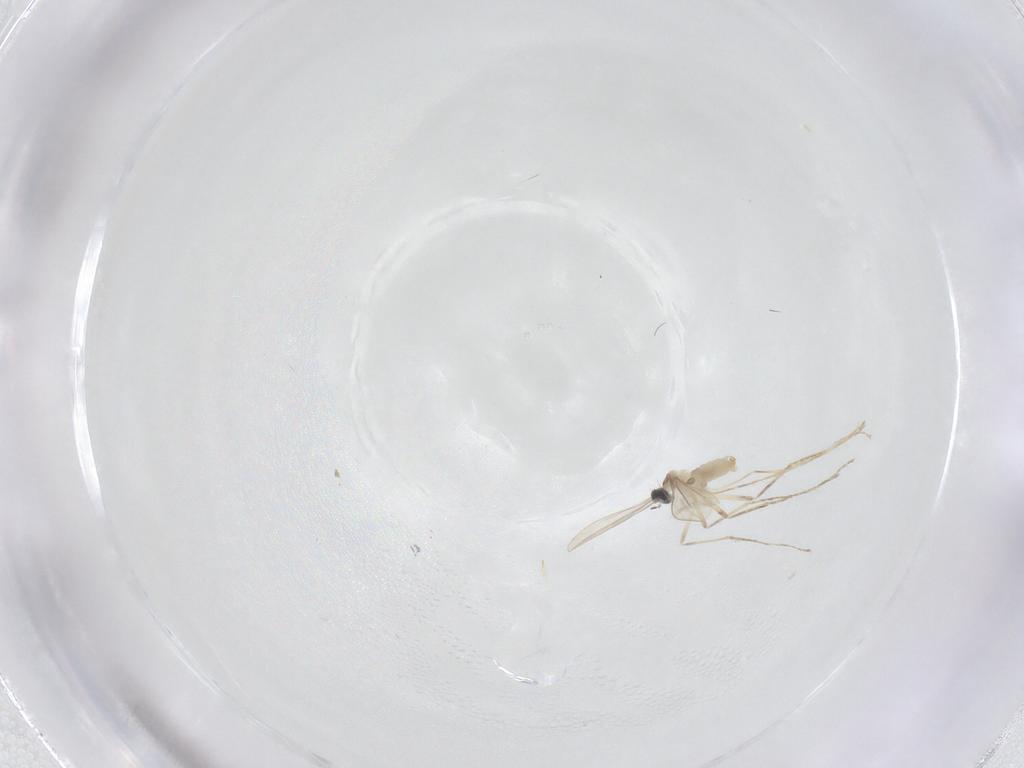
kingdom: Animalia
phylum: Arthropoda
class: Insecta
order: Diptera
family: Cecidomyiidae
